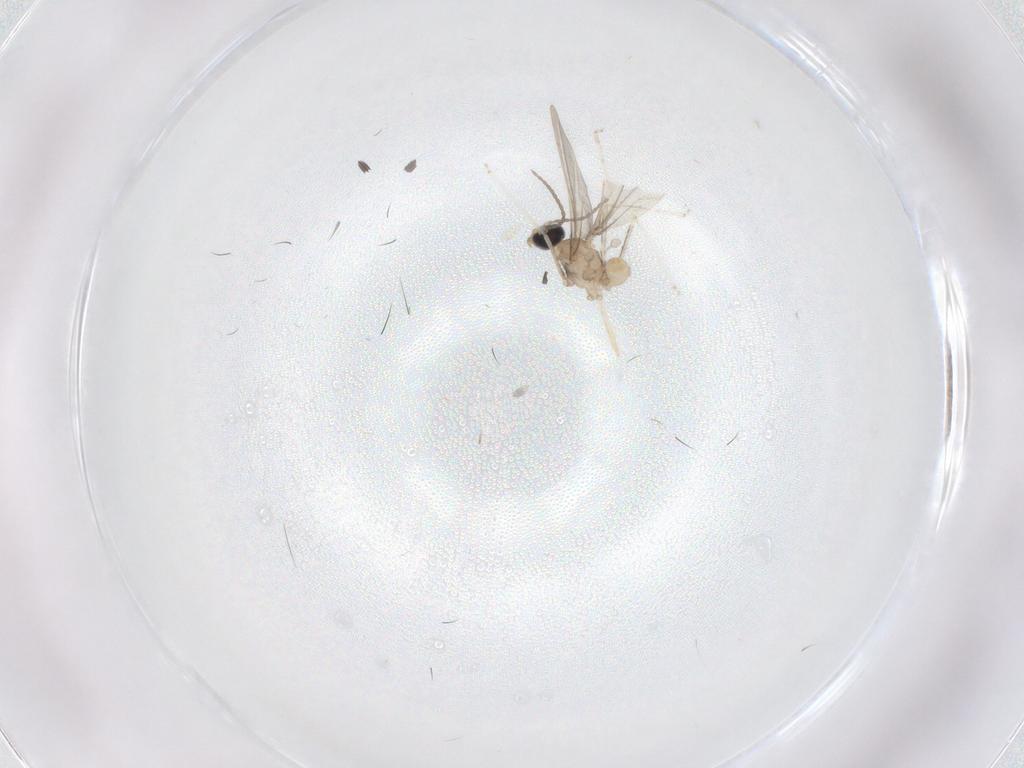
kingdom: Animalia
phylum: Arthropoda
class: Insecta
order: Diptera
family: Cecidomyiidae
